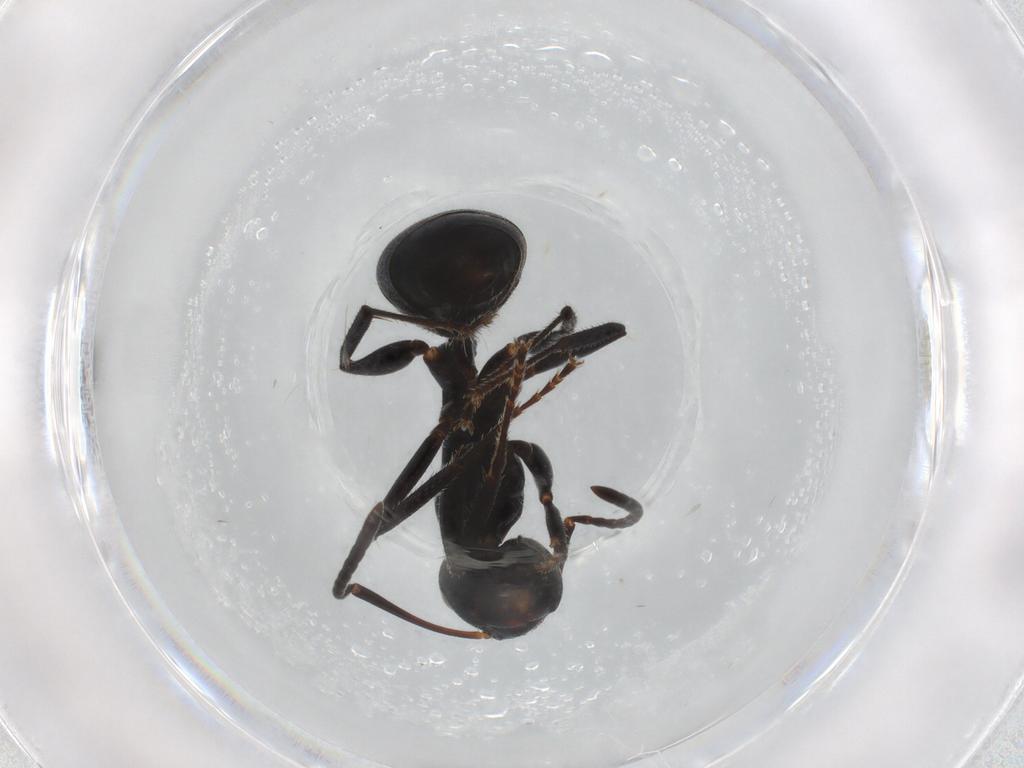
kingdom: Animalia
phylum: Arthropoda
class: Insecta
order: Hymenoptera
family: Formicidae
